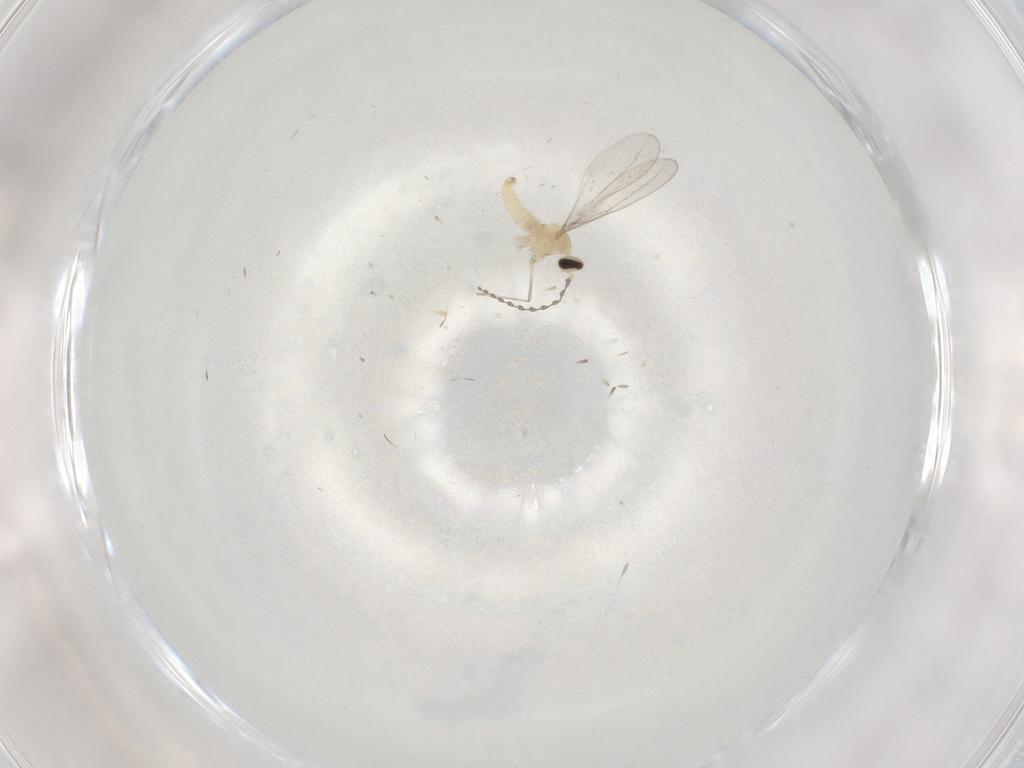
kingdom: Animalia
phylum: Arthropoda
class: Insecta
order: Diptera
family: Cecidomyiidae
